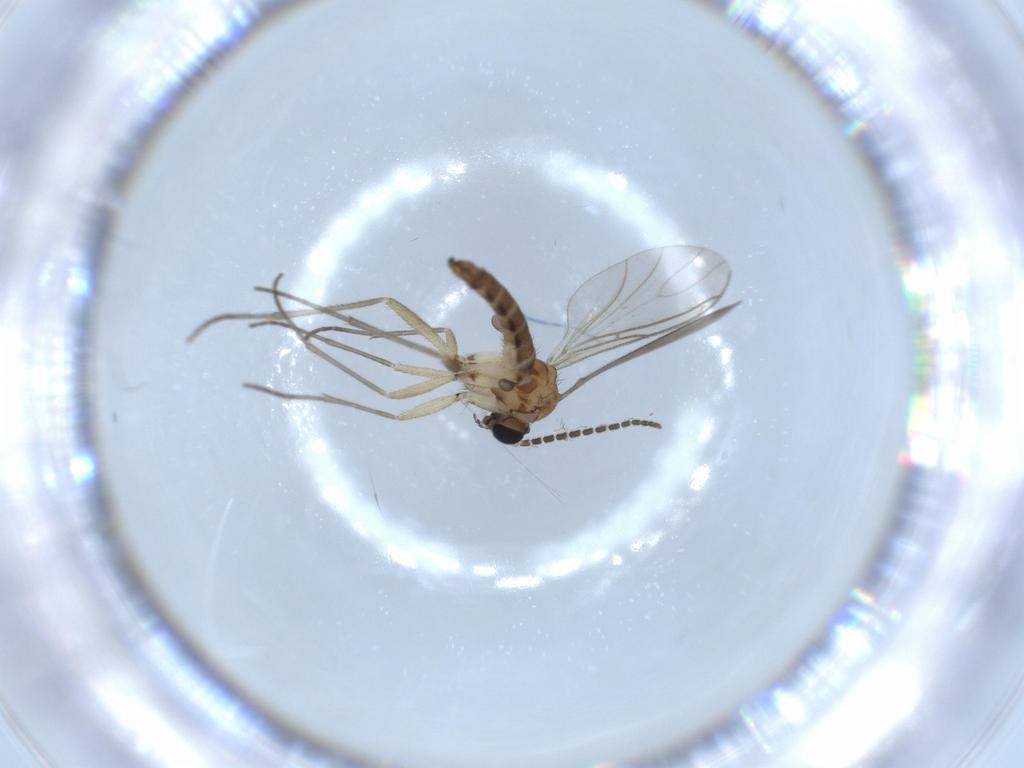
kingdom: Animalia
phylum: Arthropoda
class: Insecta
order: Diptera
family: Sciaridae
